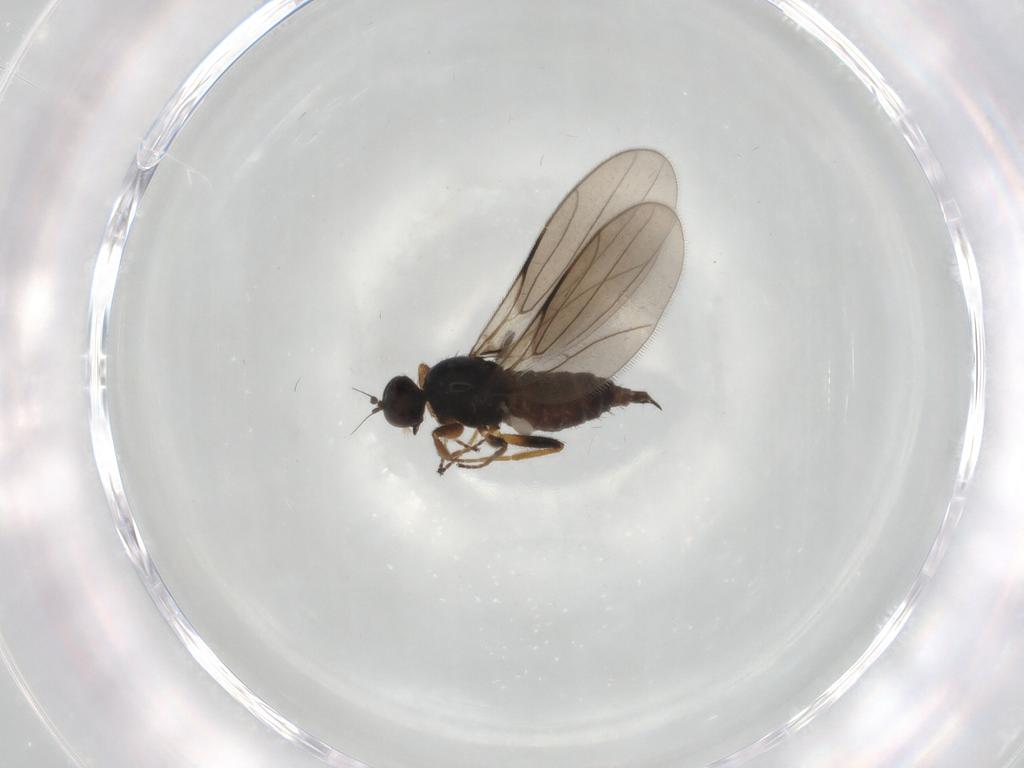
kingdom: Animalia
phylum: Arthropoda
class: Insecta
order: Diptera
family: Hybotidae
